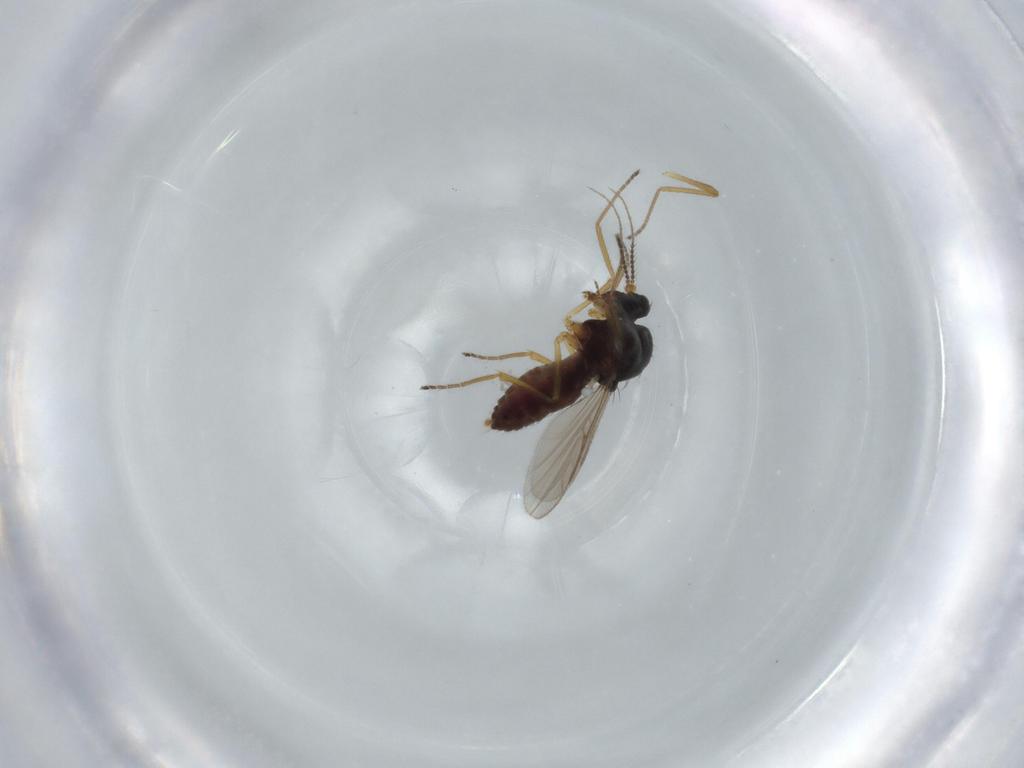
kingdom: Animalia
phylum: Arthropoda
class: Insecta
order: Diptera
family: Ceratopogonidae
